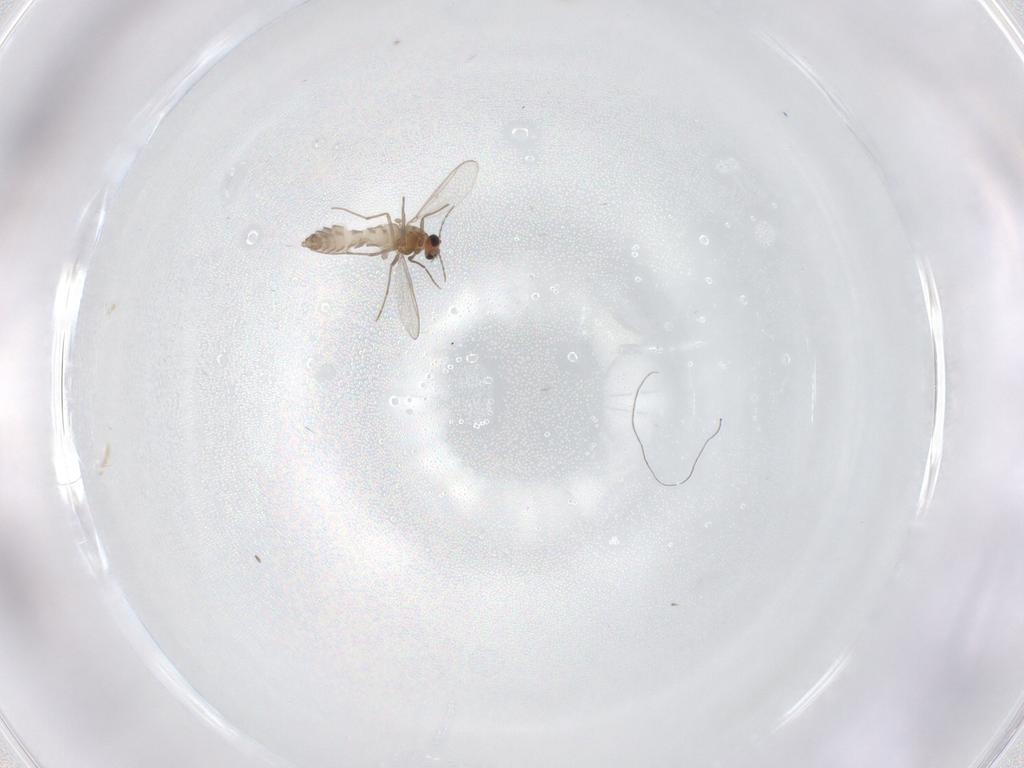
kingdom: Animalia
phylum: Arthropoda
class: Insecta
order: Diptera
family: Chironomidae
